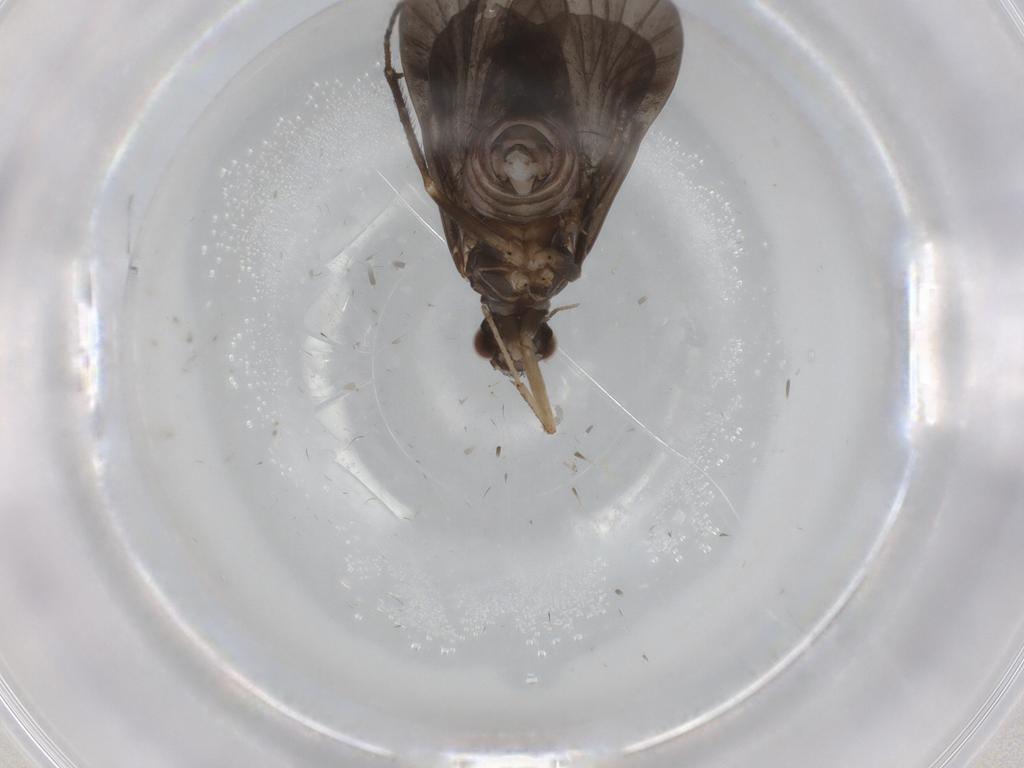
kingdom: Animalia
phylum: Arthropoda
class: Insecta
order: Trichoptera
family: Hydropsychidae
